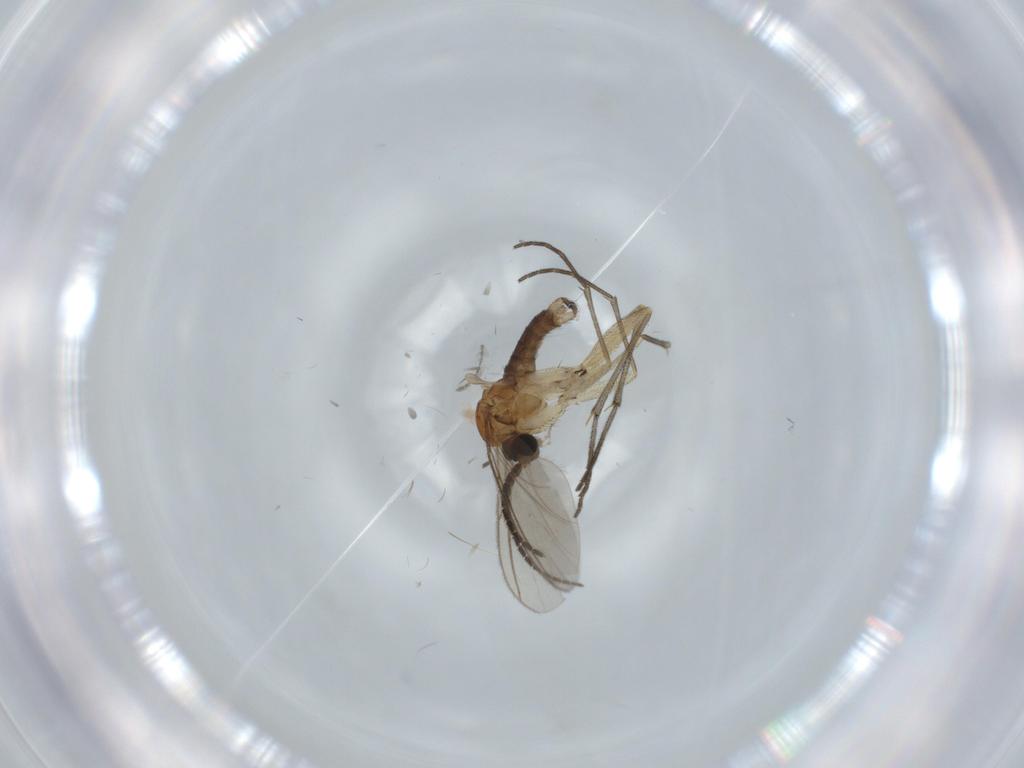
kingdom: Animalia
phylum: Arthropoda
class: Insecta
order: Diptera
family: Sciaridae
